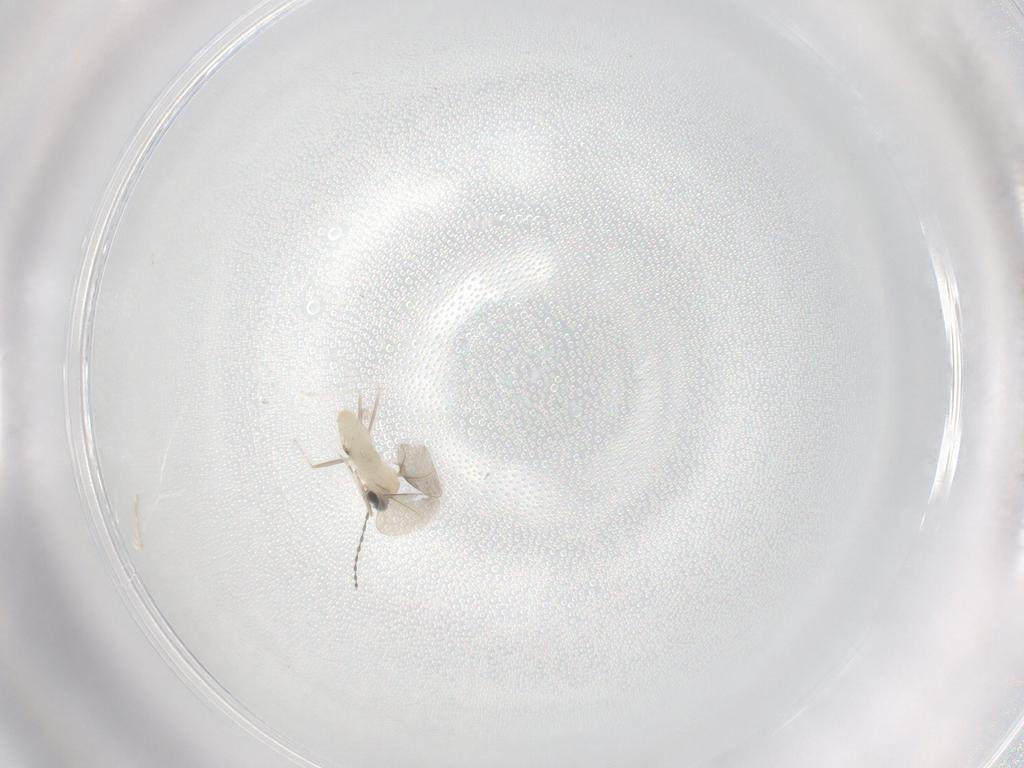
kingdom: Animalia
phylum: Arthropoda
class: Insecta
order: Diptera
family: Cecidomyiidae
